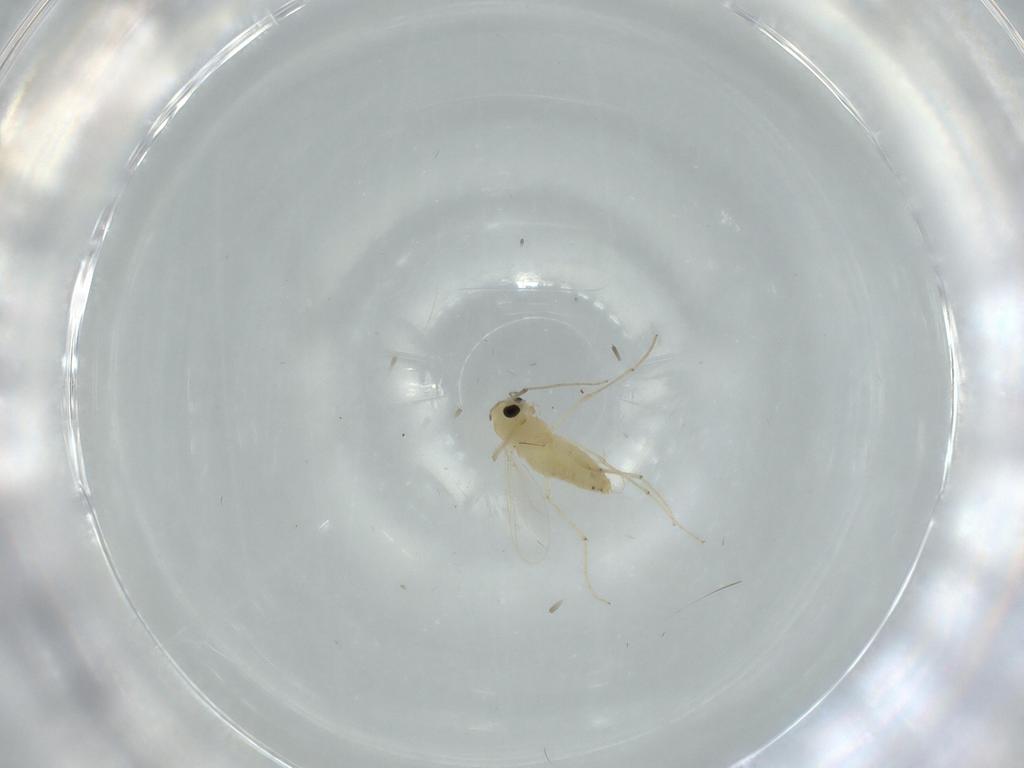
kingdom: Animalia
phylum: Arthropoda
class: Insecta
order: Diptera
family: Chironomidae
